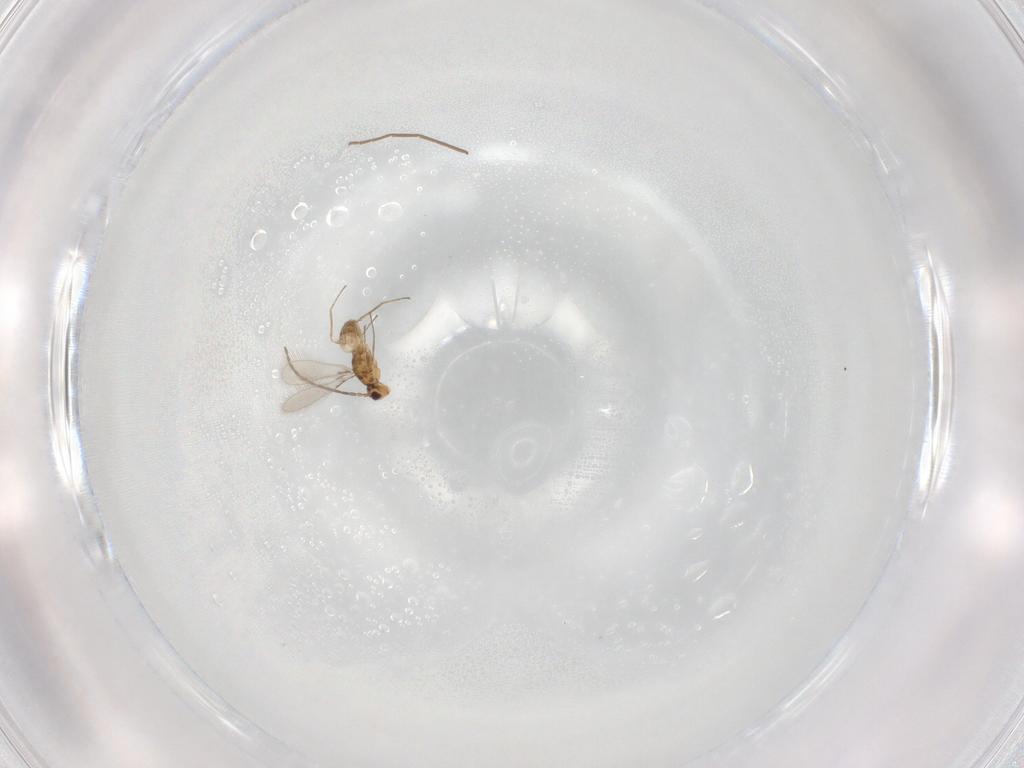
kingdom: Animalia
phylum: Arthropoda
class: Insecta
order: Hymenoptera
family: Mymaridae
